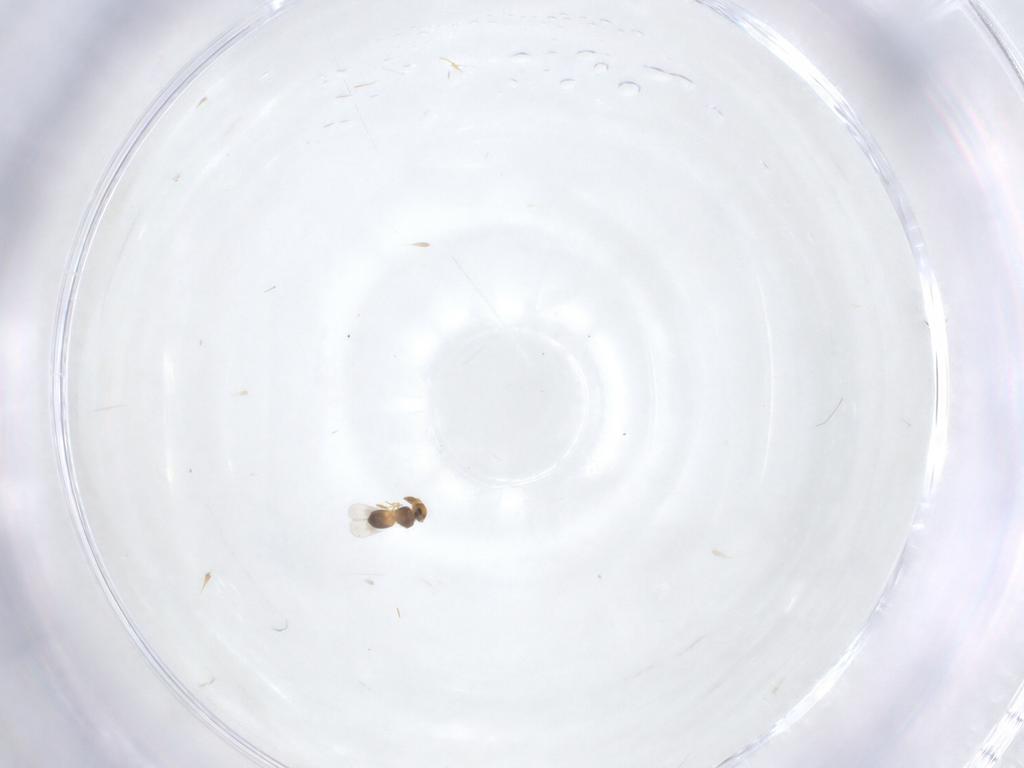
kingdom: Animalia
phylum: Arthropoda
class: Insecta
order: Hymenoptera
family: Platygastridae
